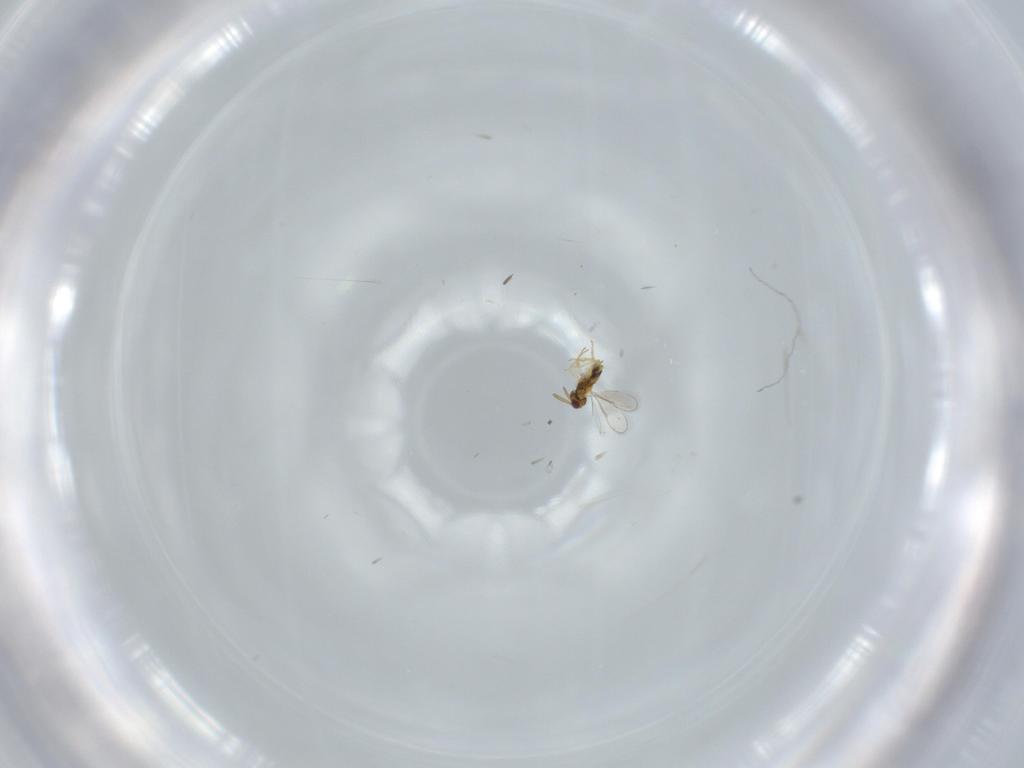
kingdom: Animalia
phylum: Arthropoda
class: Insecta
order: Hymenoptera
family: Aphelinidae
